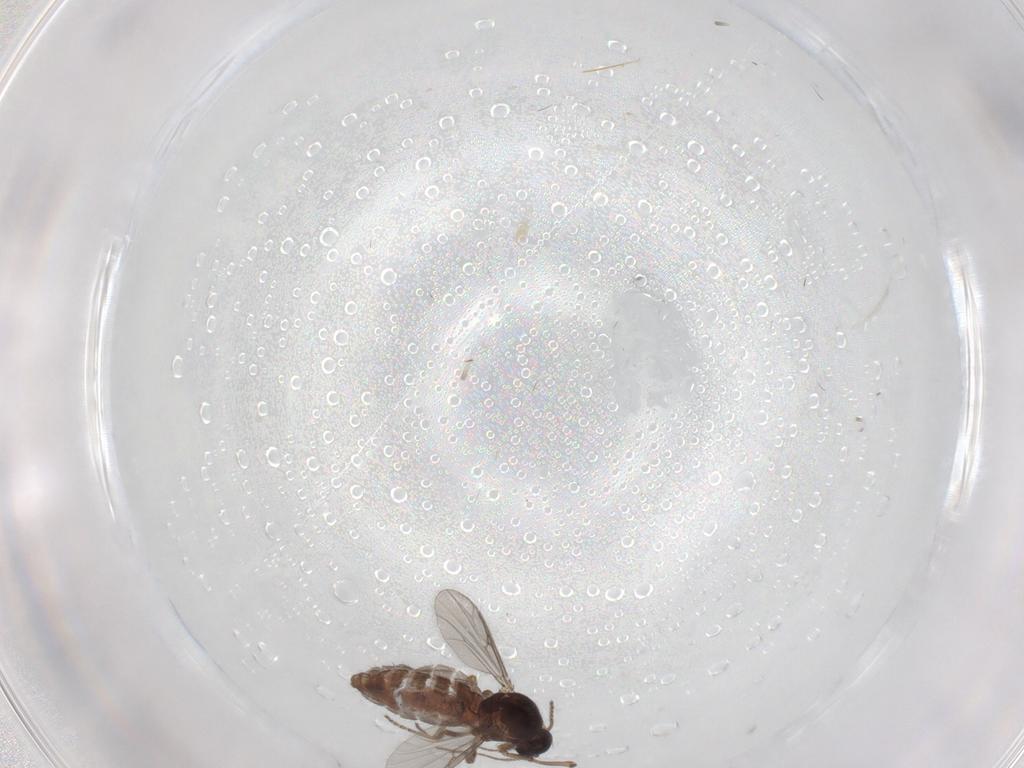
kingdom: Animalia
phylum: Arthropoda
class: Insecta
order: Diptera
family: Ceratopogonidae
